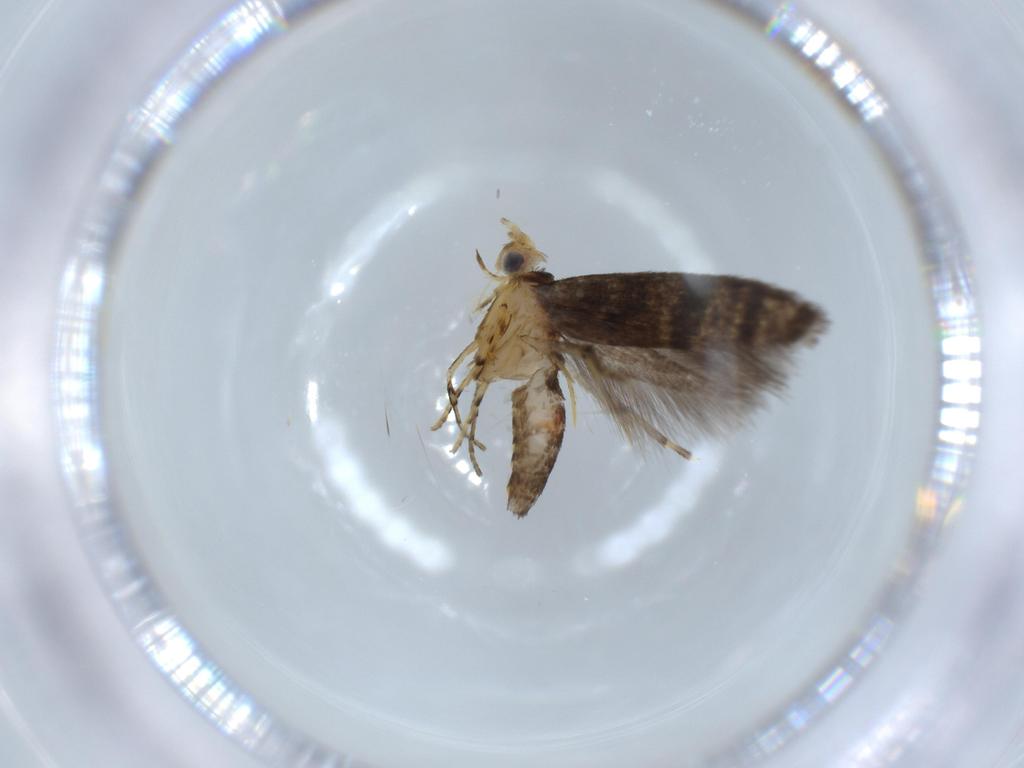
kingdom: Animalia
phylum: Arthropoda
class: Insecta
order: Lepidoptera
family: Argyresthiidae
